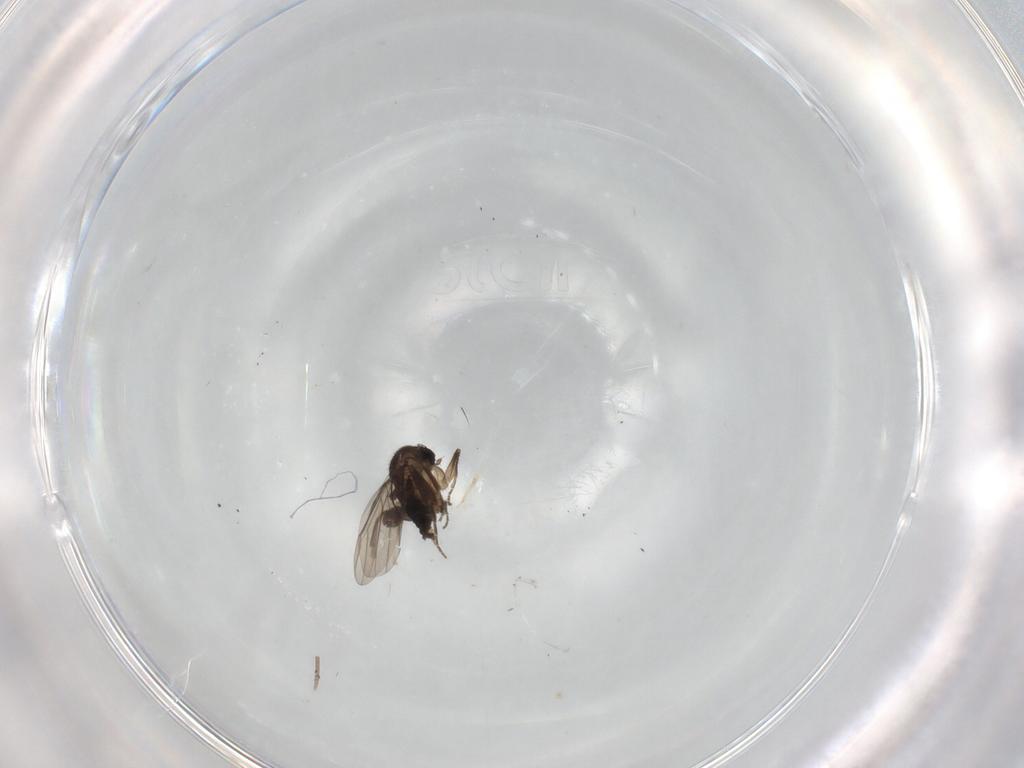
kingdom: Animalia
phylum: Arthropoda
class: Insecta
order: Diptera
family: Sciaridae
